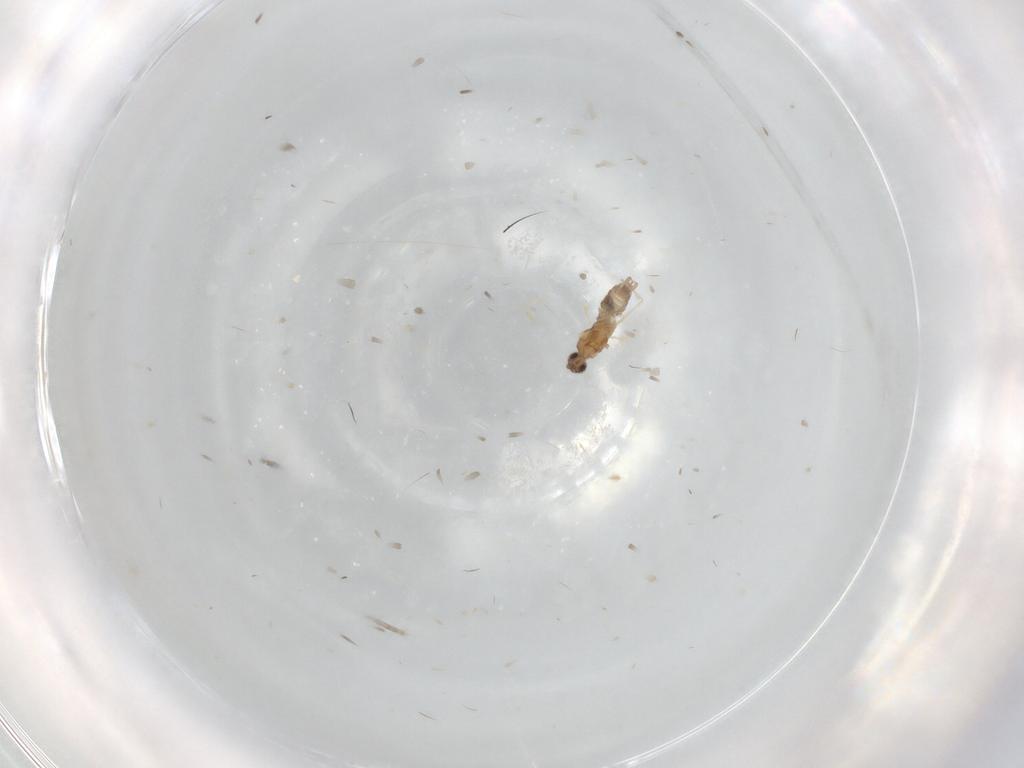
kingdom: Animalia
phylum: Arthropoda
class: Insecta
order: Diptera
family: Cecidomyiidae
